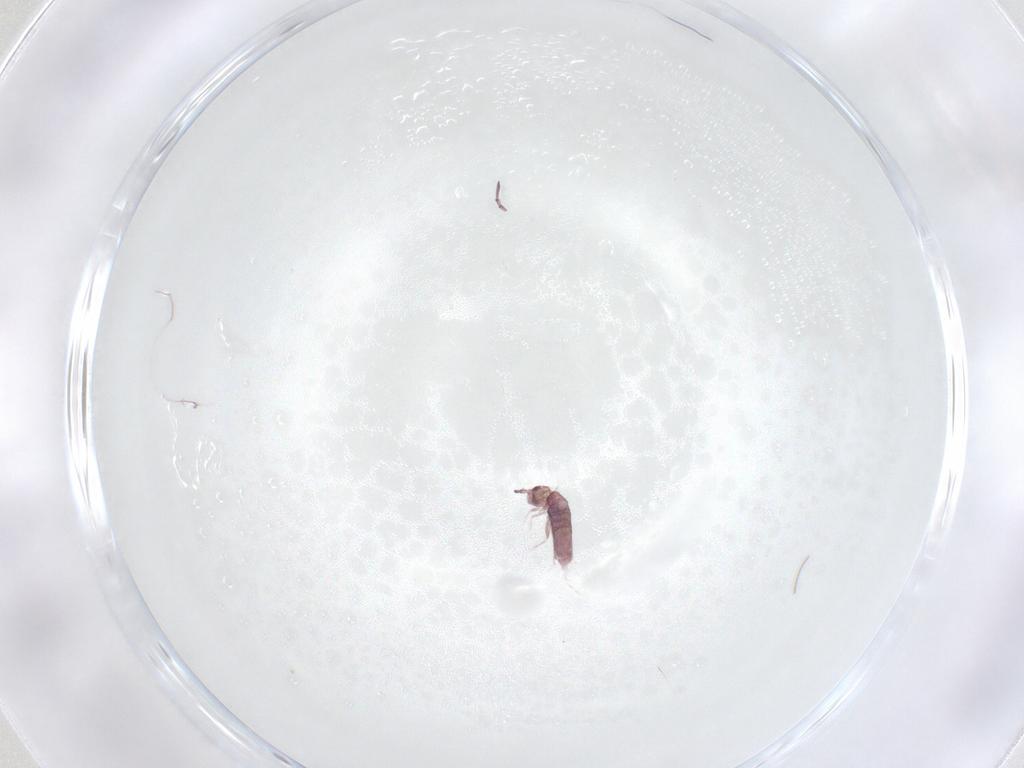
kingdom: Animalia
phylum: Arthropoda
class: Collembola
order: Entomobryomorpha
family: Entomobryidae
